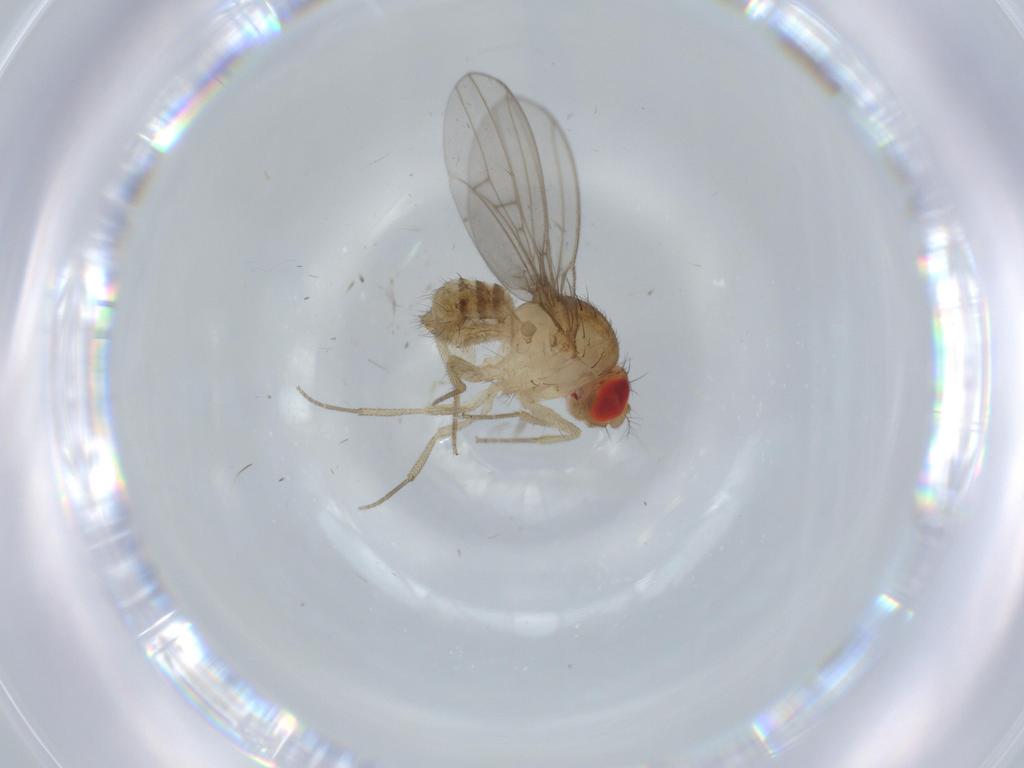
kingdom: Animalia
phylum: Arthropoda
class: Insecta
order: Diptera
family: Drosophilidae
